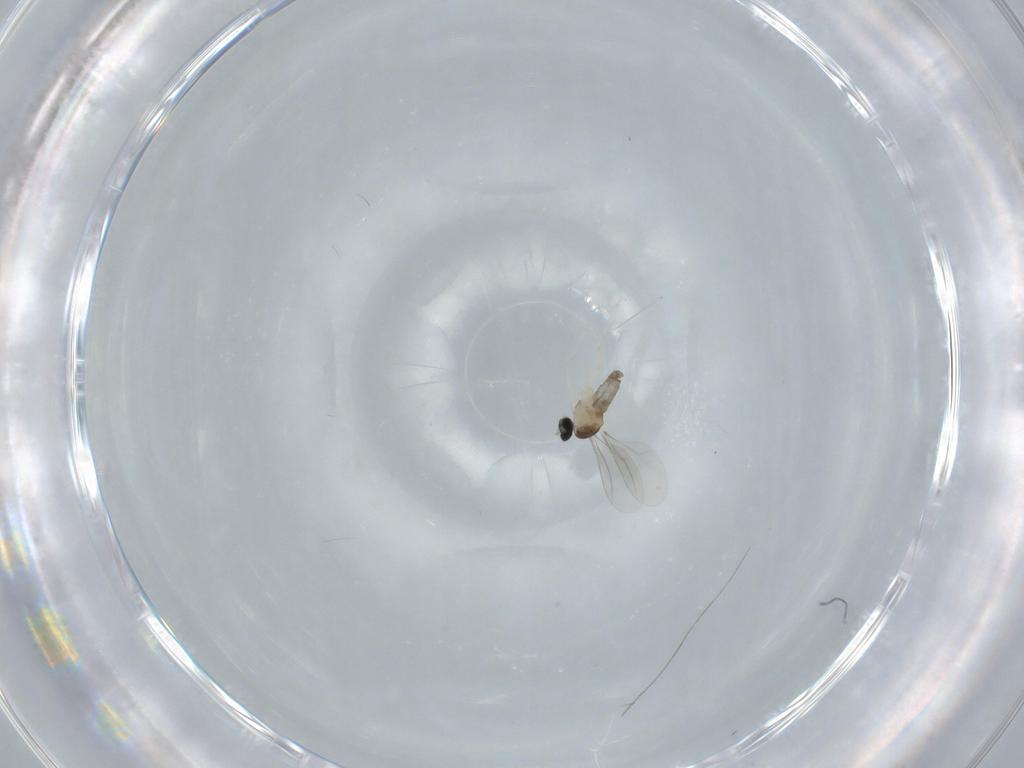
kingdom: Animalia
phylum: Arthropoda
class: Insecta
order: Diptera
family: Cecidomyiidae
